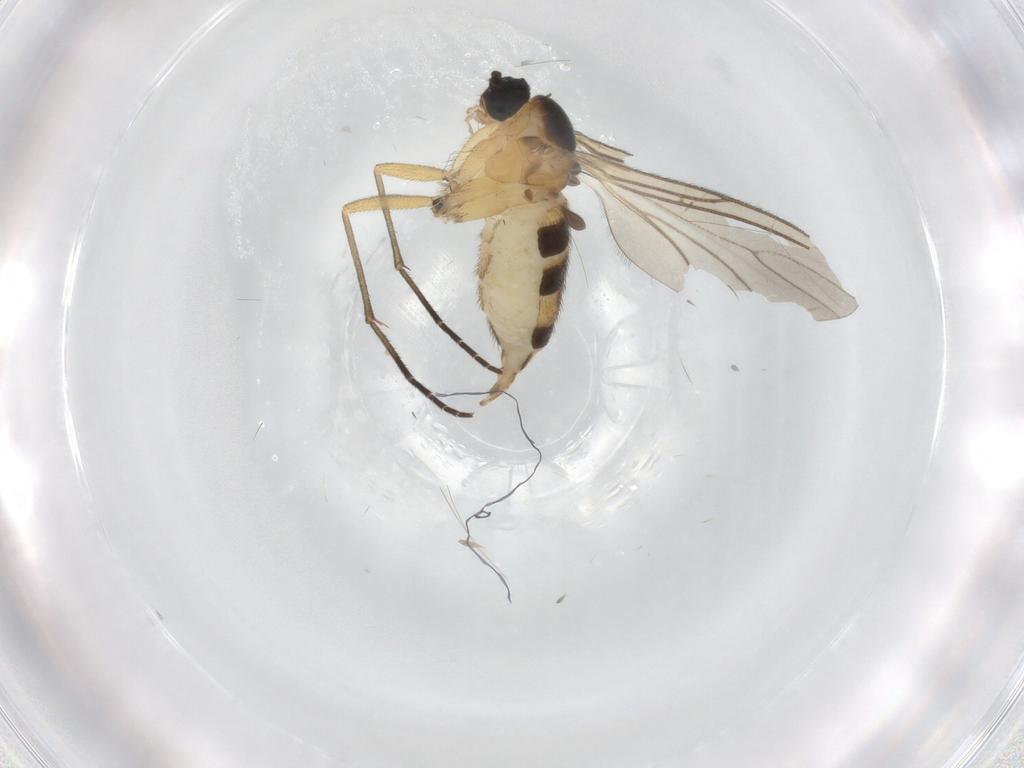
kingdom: Animalia
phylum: Arthropoda
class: Insecta
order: Diptera
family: Sciaridae
